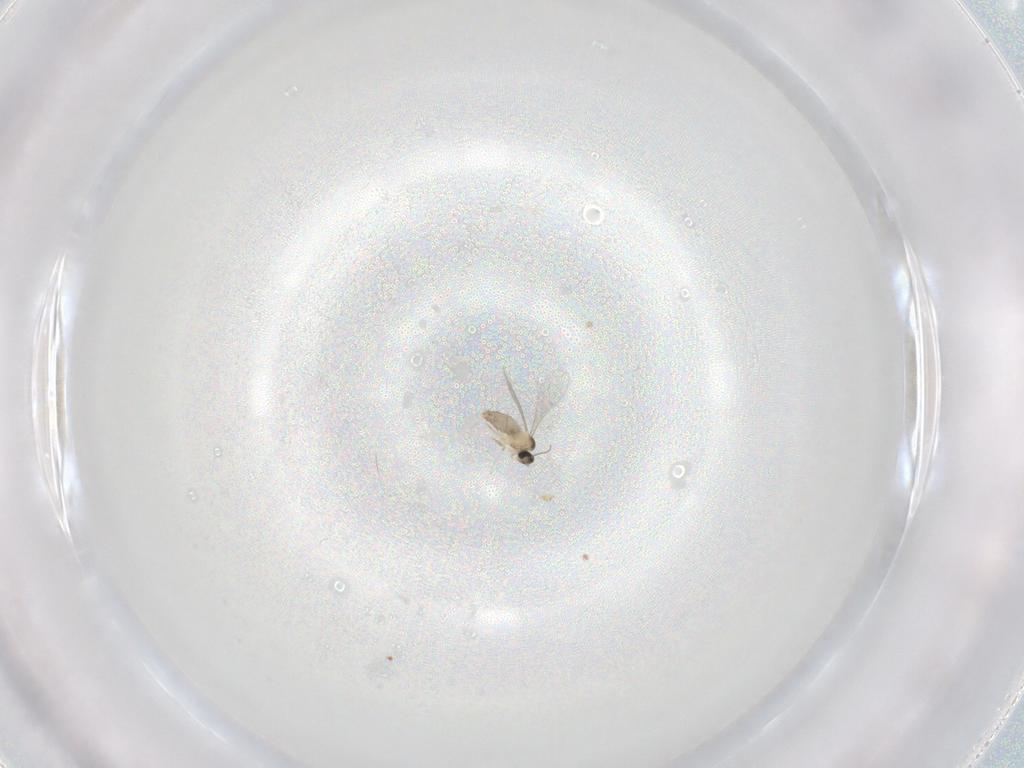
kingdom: Animalia
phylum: Arthropoda
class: Insecta
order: Diptera
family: Cecidomyiidae
